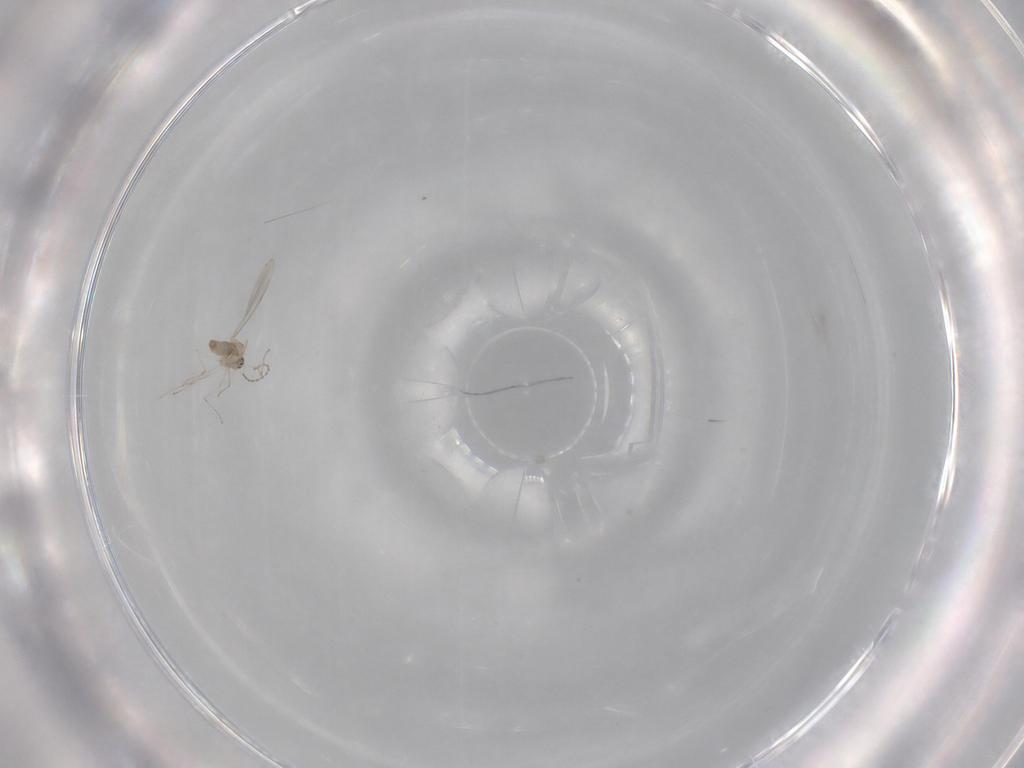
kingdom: Animalia
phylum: Arthropoda
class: Insecta
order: Diptera
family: Cecidomyiidae
